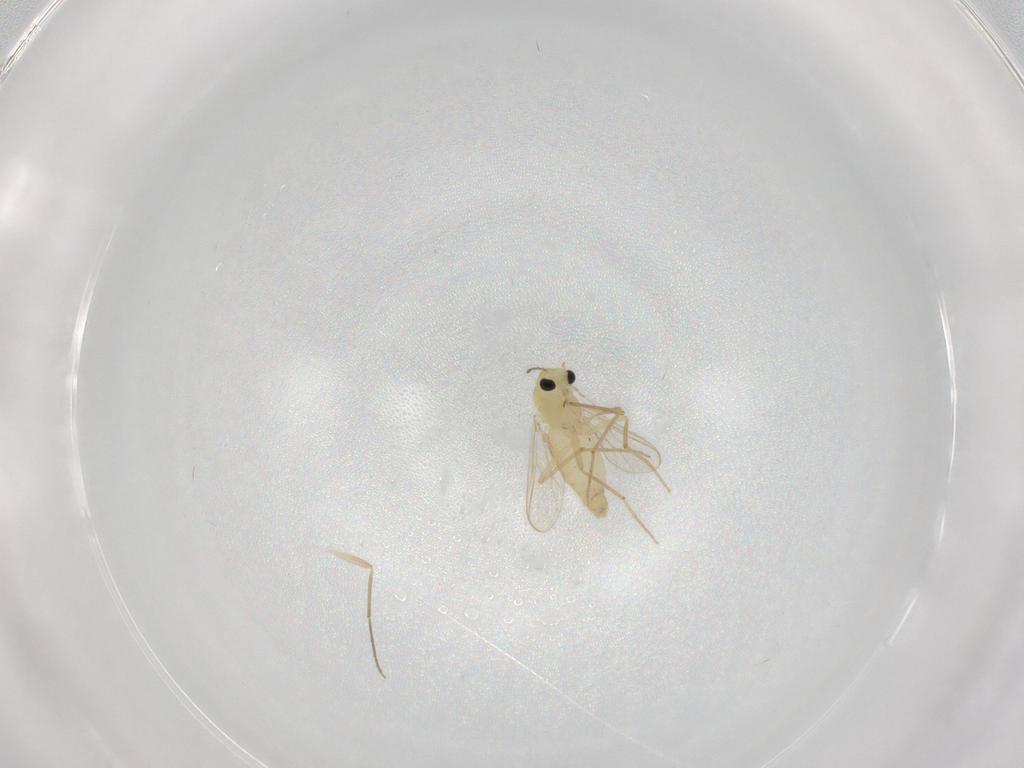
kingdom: Animalia
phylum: Arthropoda
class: Insecta
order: Diptera
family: Chironomidae
